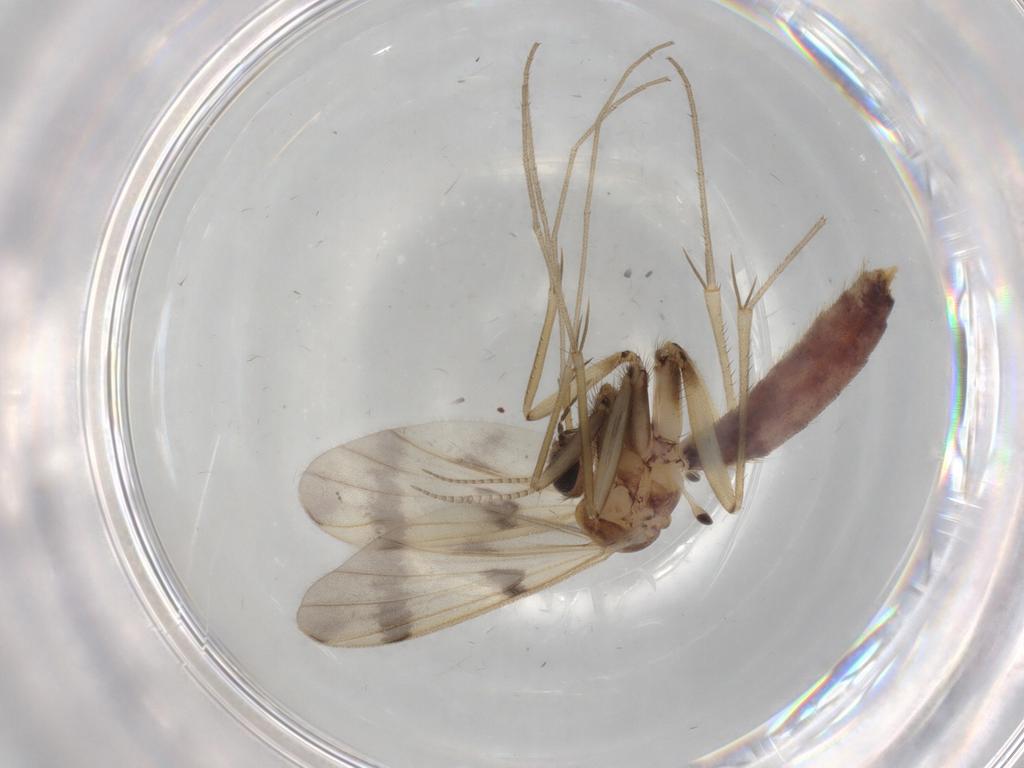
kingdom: Animalia
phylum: Arthropoda
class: Insecta
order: Diptera
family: Mycetophilidae
